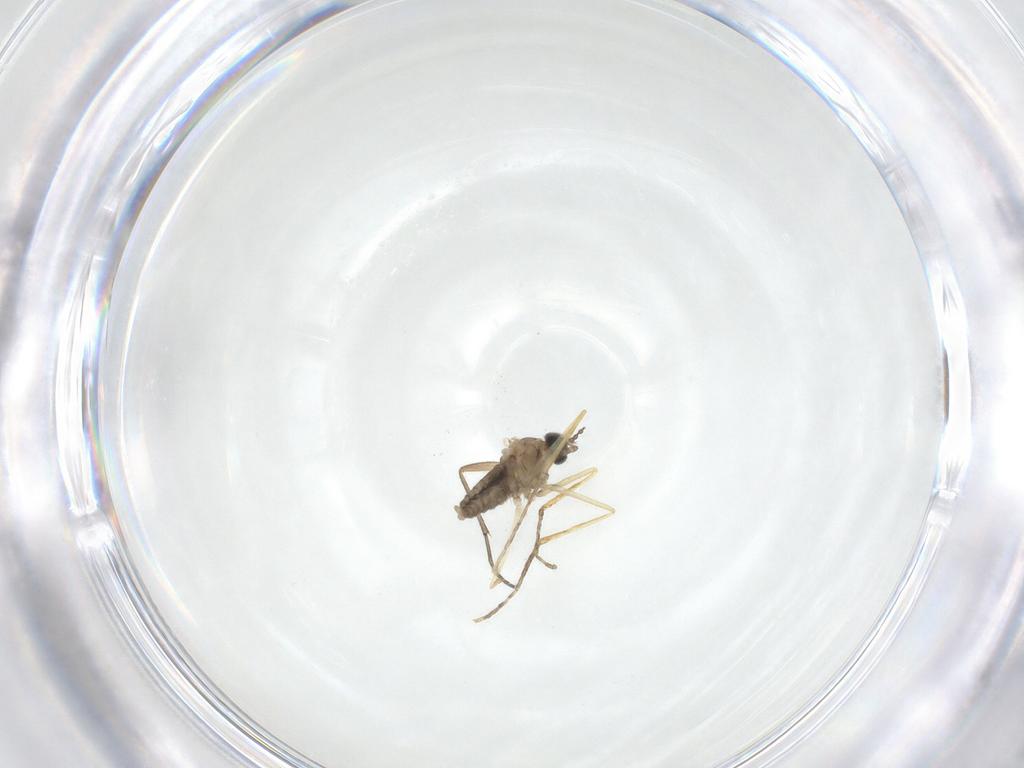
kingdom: Animalia
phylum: Arthropoda
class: Insecta
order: Diptera
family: Cecidomyiidae
